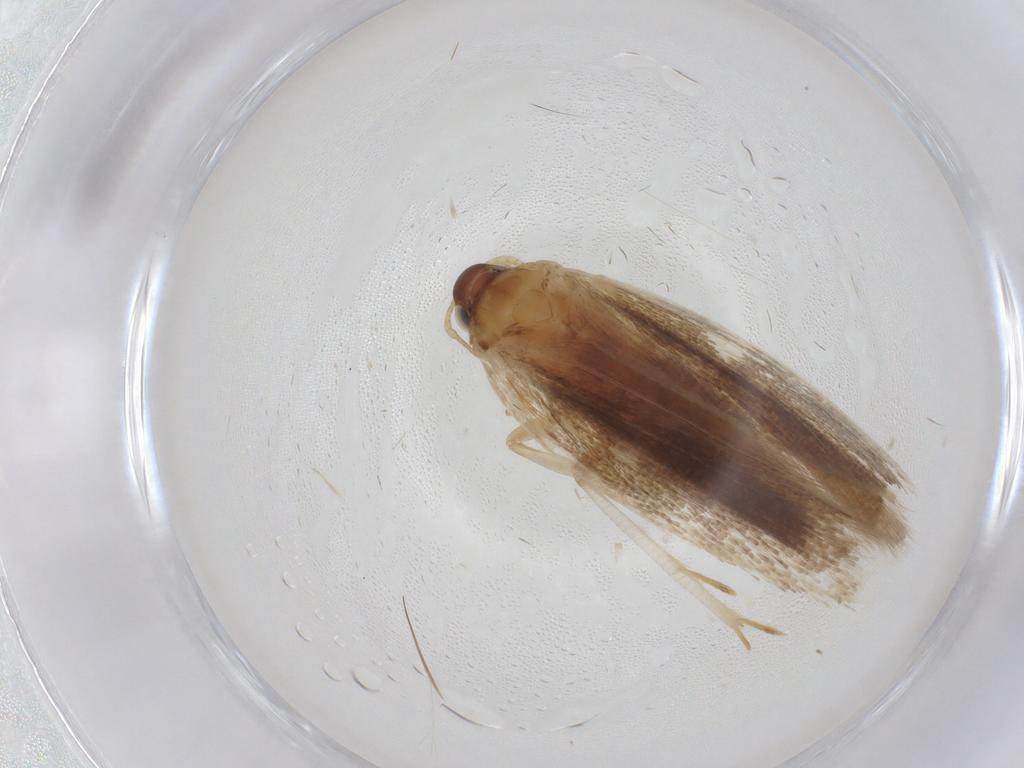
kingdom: Animalia
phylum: Arthropoda
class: Insecta
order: Lepidoptera
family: Gelechiidae
